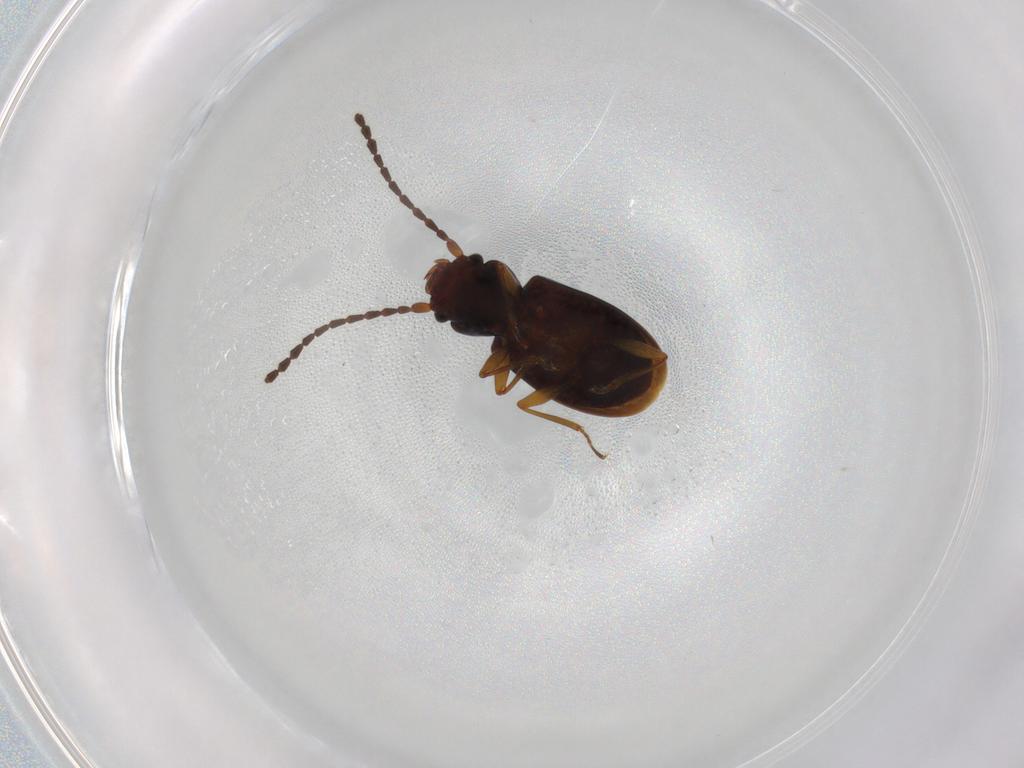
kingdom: Animalia
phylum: Arthropoda
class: Insecta
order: Coleoptera
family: Laemophloeidae
